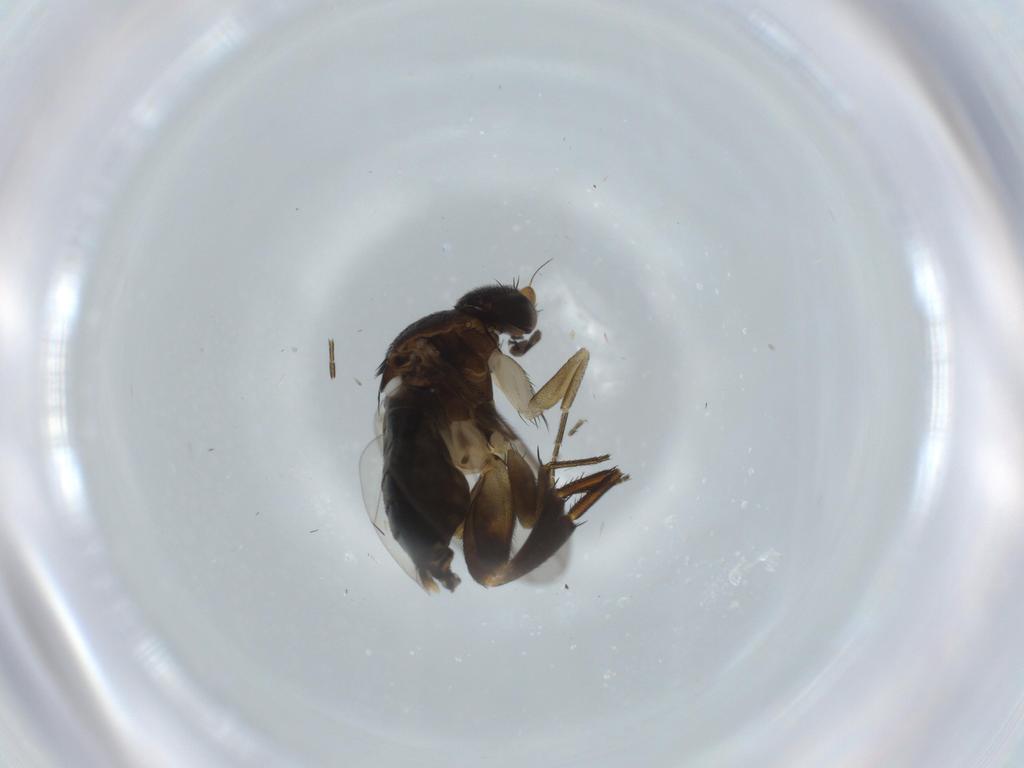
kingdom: Animalia
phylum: Arthropoda
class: Insecta
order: Diptera
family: Phoridae
